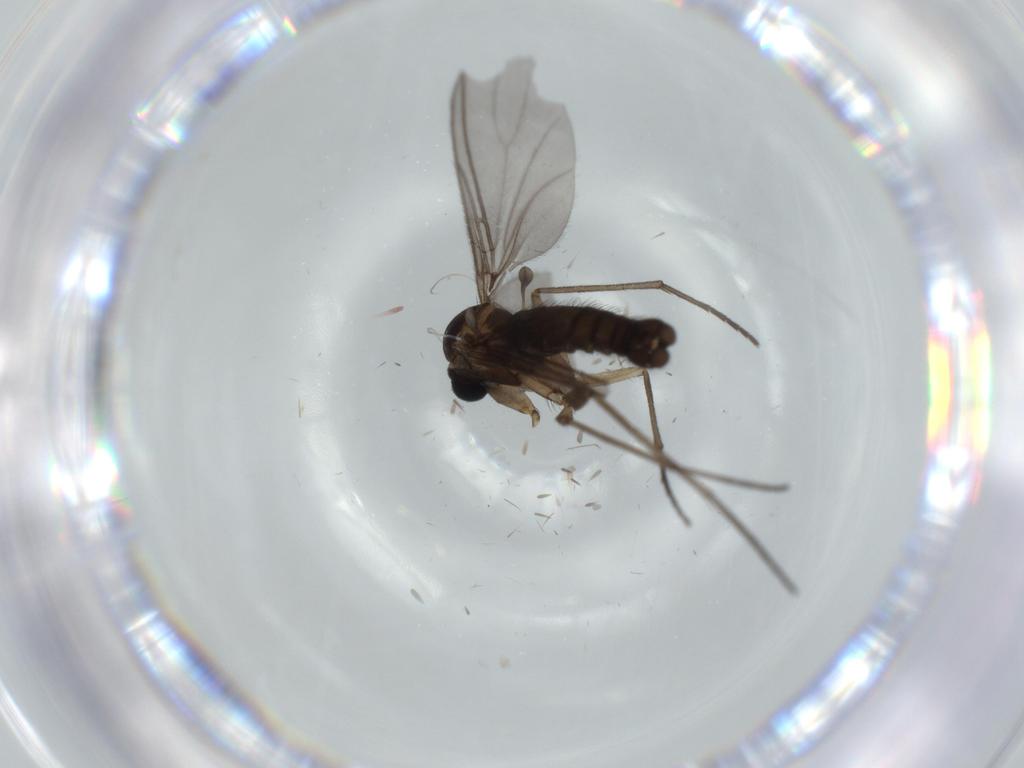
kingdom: Animalia
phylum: Arthropoda
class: Insecta
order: Diptera
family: Sciaridae
